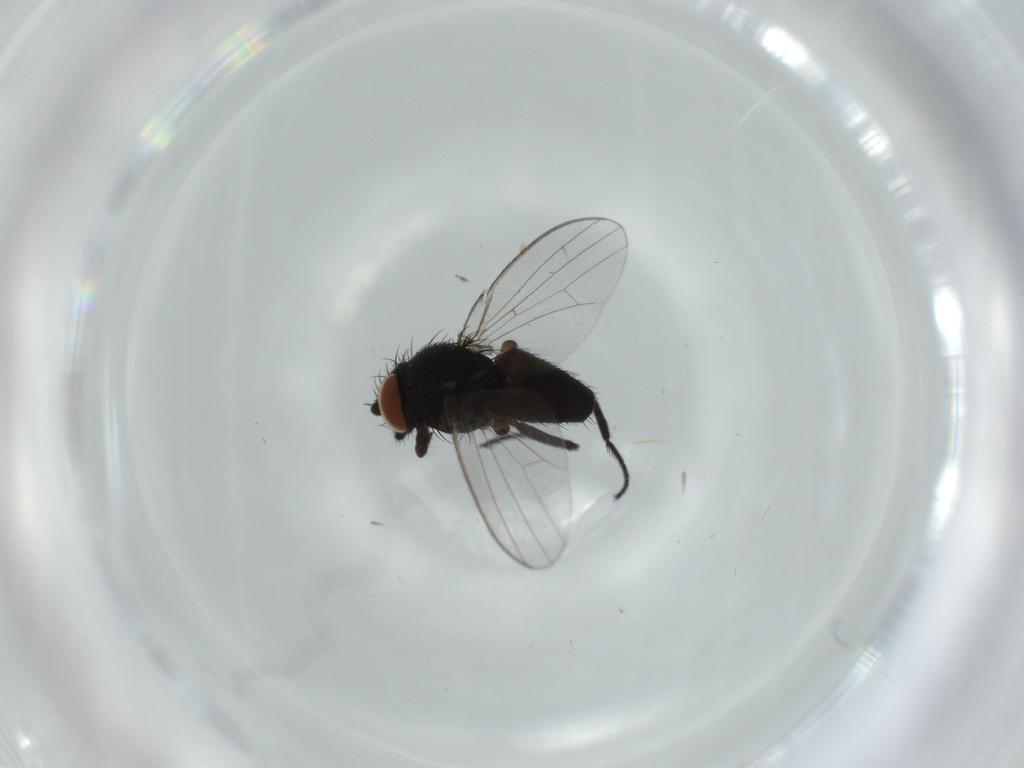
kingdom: Animalia
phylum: Arthropoda
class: Insecta
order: Diptera
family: Milichiidae
